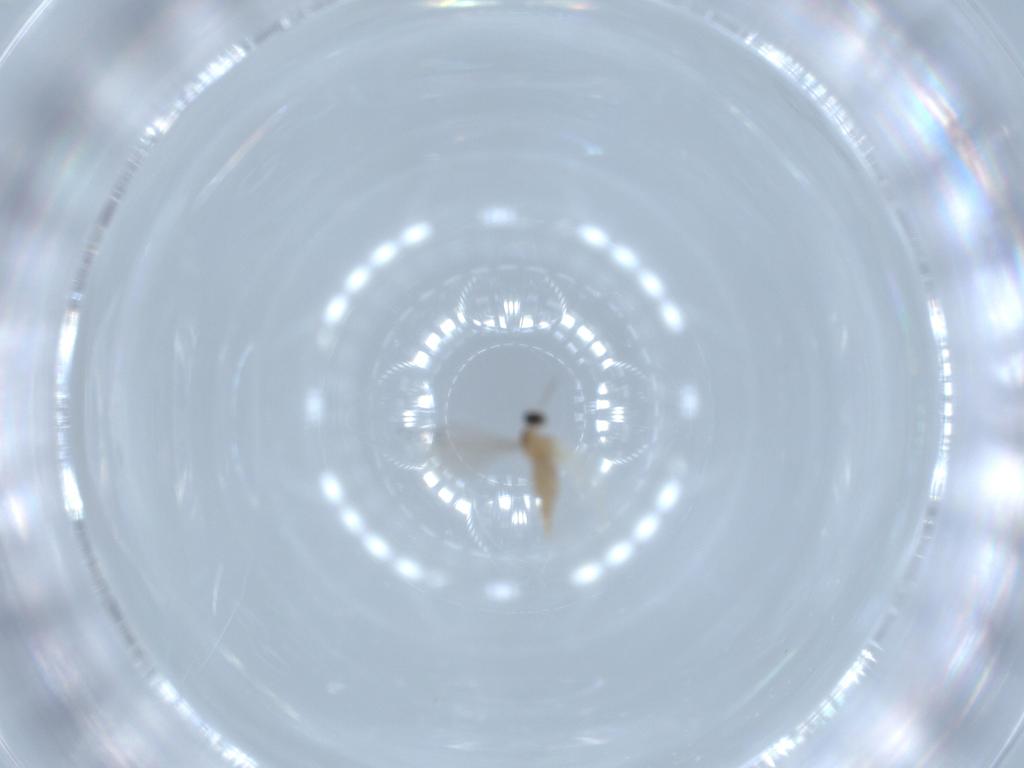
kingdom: Animalia
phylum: Arthropoda
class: Insecta
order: Diptera
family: Cecidomyiidae
